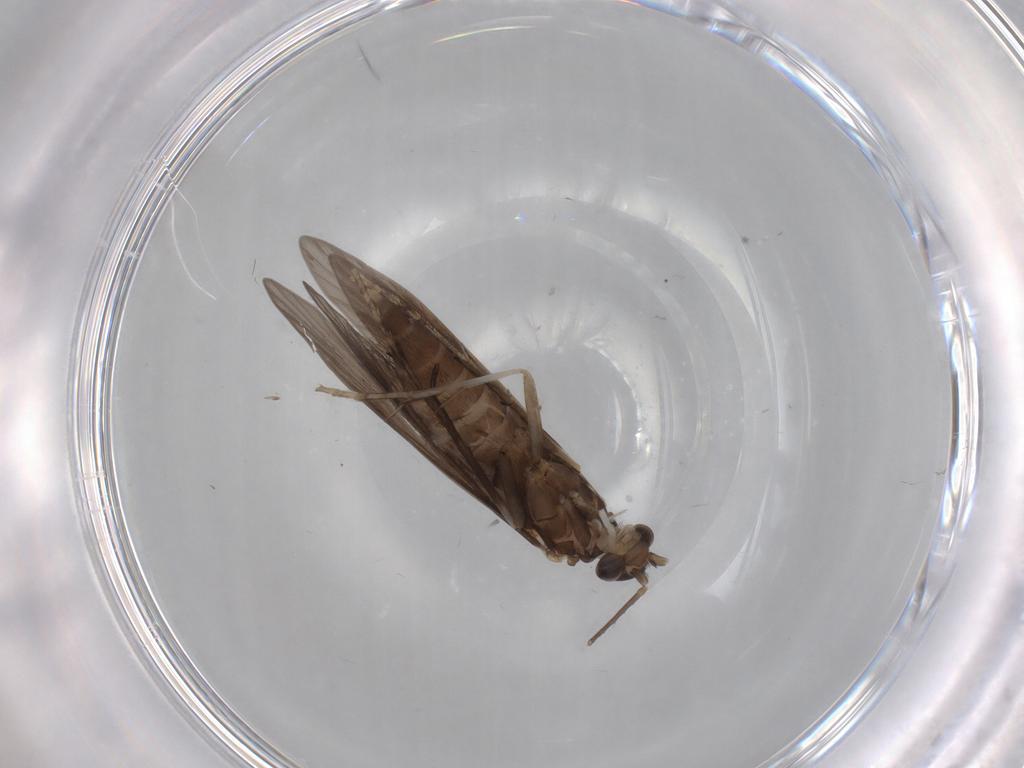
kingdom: Animalia
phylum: Arthropoda
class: Insecta
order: Trichoptera
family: Xiphocentronidae
